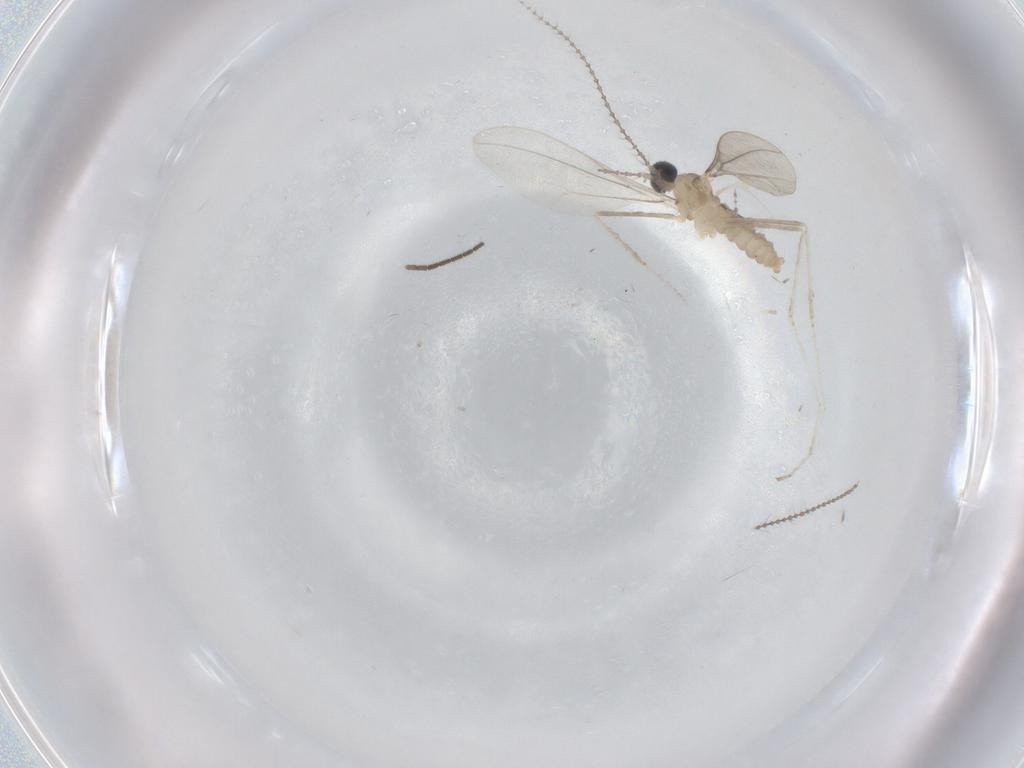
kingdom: Animalia
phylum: Arthropoda
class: Insecta
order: Diptera
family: Cecidomyiidae
